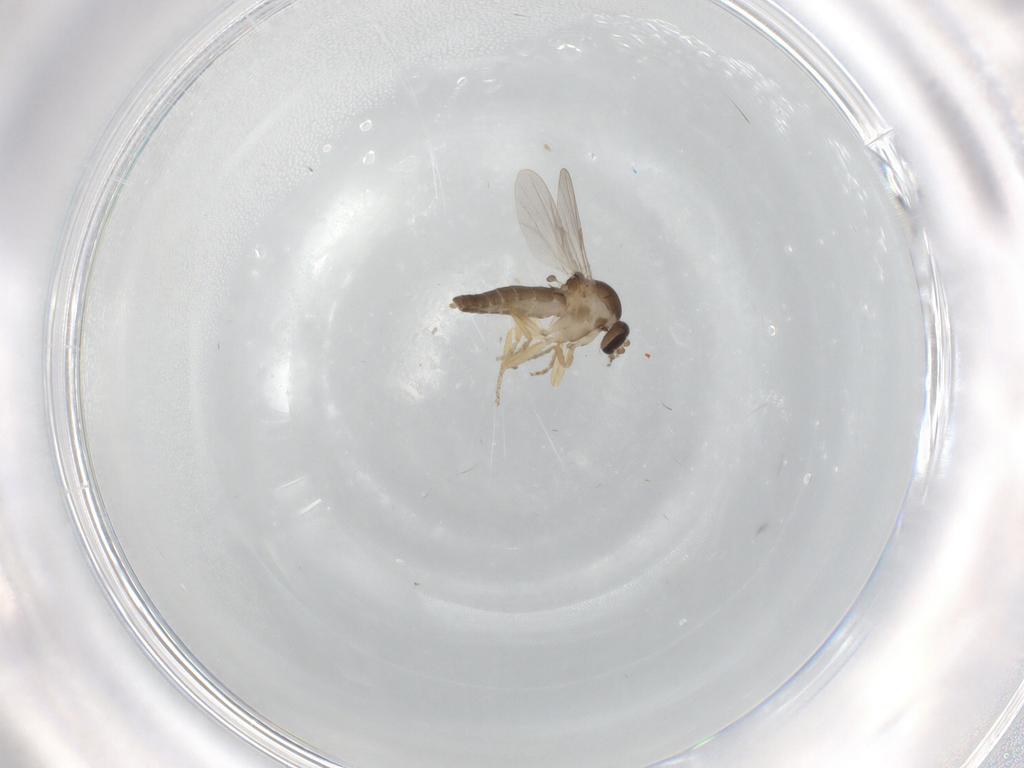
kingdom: Animalia
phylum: Arthropoda
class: Insecta
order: Diptera
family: Ceratopogonidae
